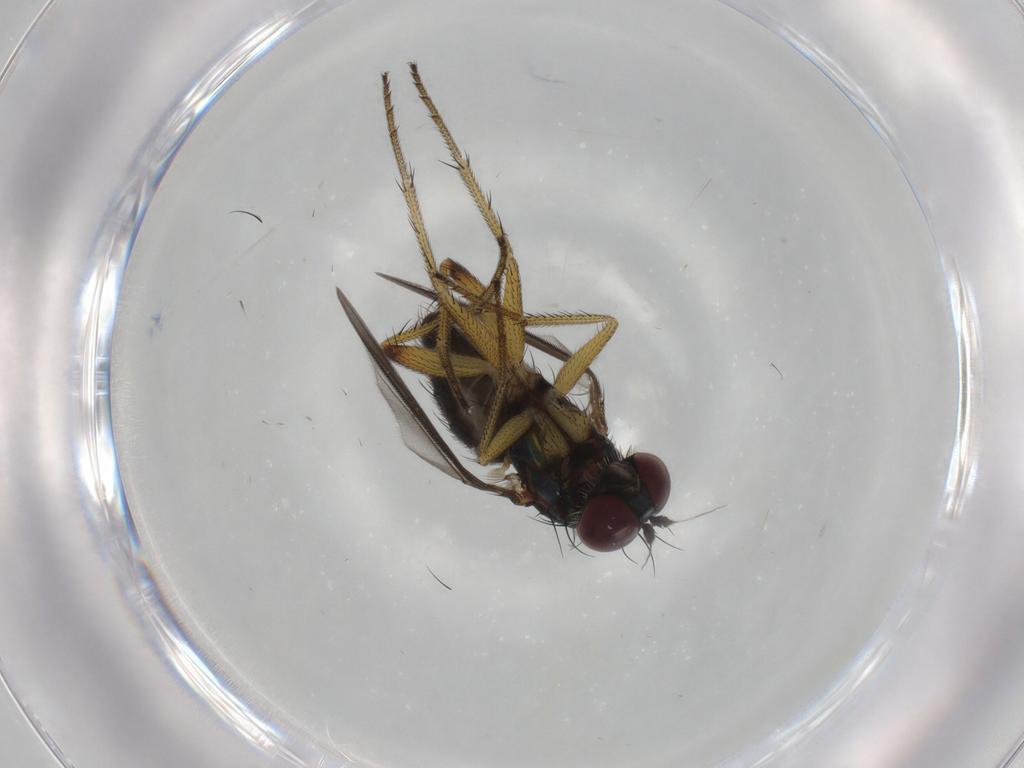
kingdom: Animalia
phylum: Arthropoda
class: Insecta
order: Diptera
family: Dolichopodidae
